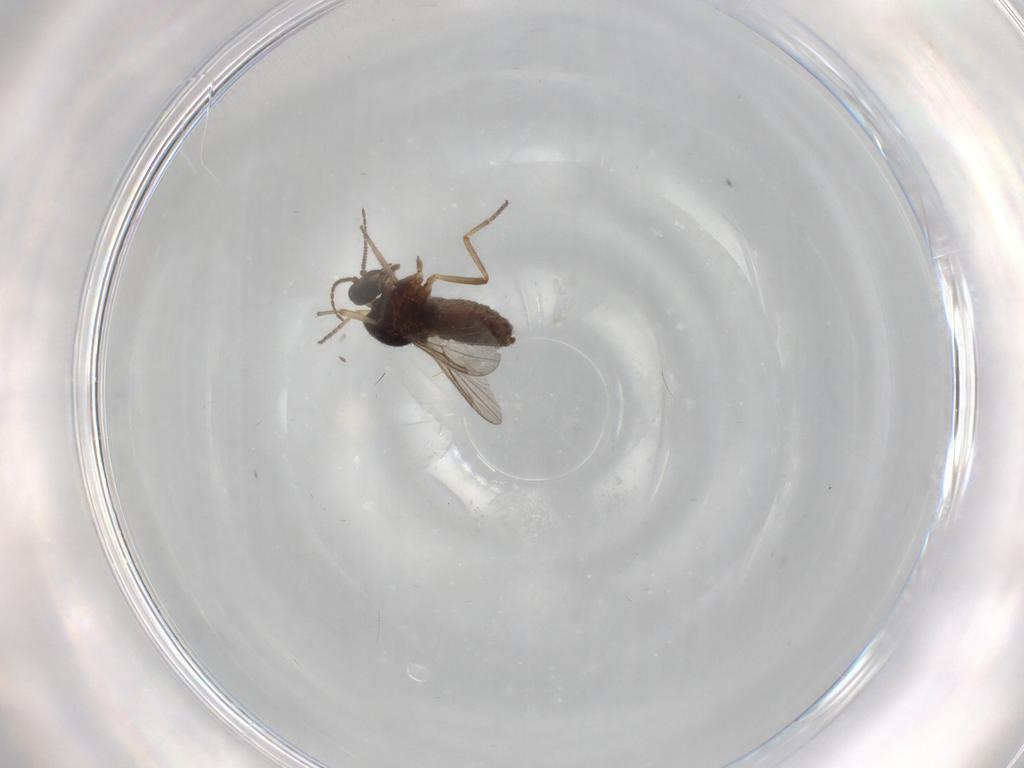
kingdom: Animalia
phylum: Arthropoda
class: Insecta
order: Diptera
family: Ceratopogonidae
